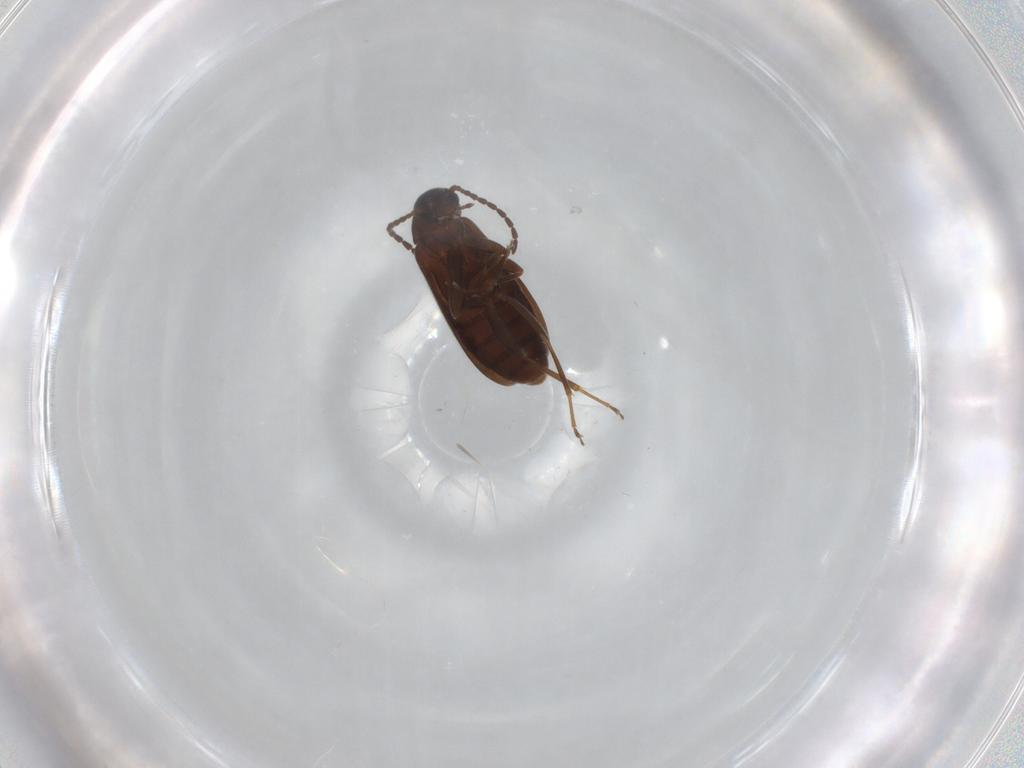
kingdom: Animalia
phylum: Arthropoda
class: Insecta
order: Coleoptera
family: Scraptiidae
